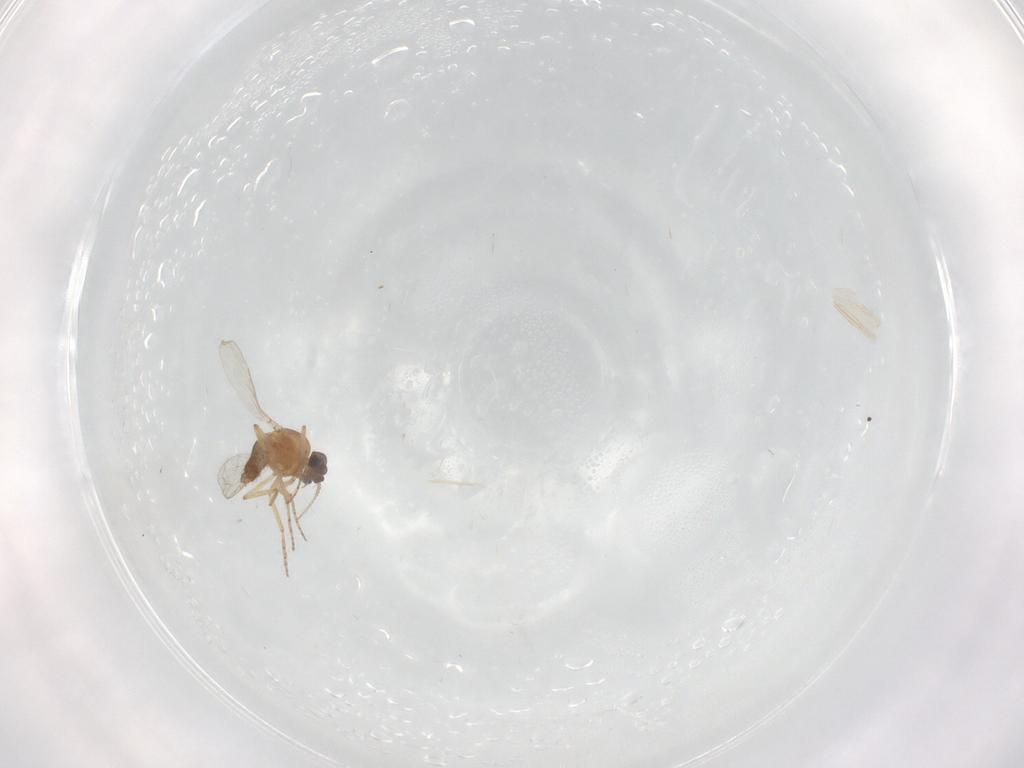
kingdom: Animalia
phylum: Arthropoda
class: Insecta
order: Diptera
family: Chironomidae
